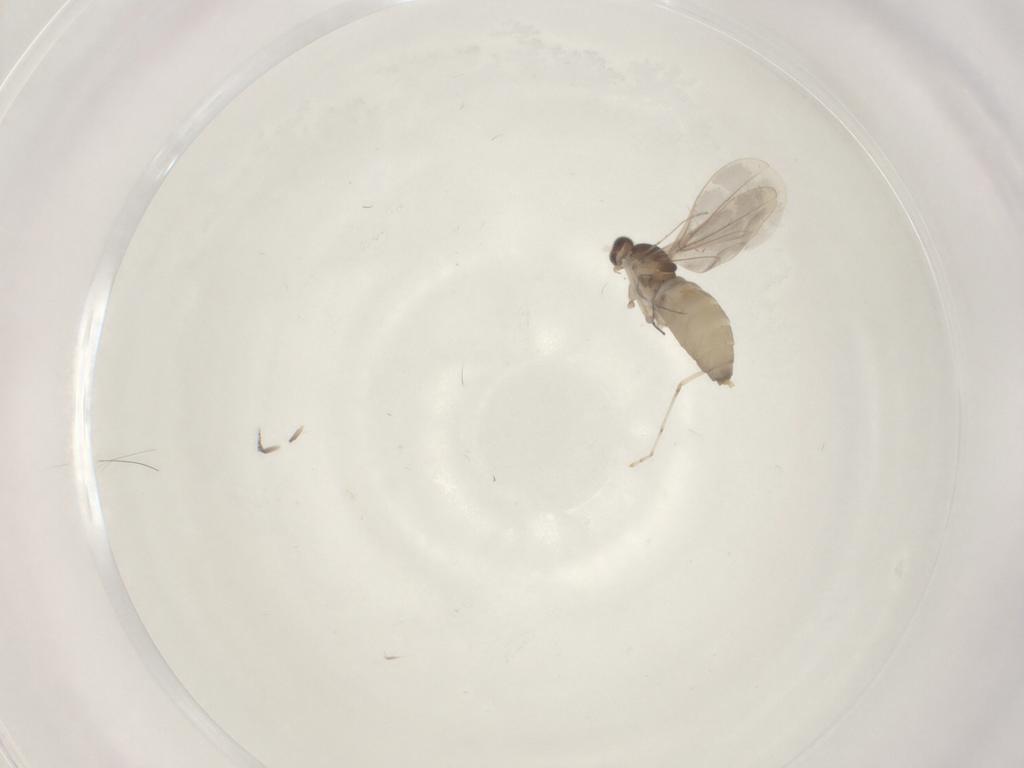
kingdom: Animalia
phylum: Arthropoda
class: Insecta
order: Diptera
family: Cecidomyiidae
